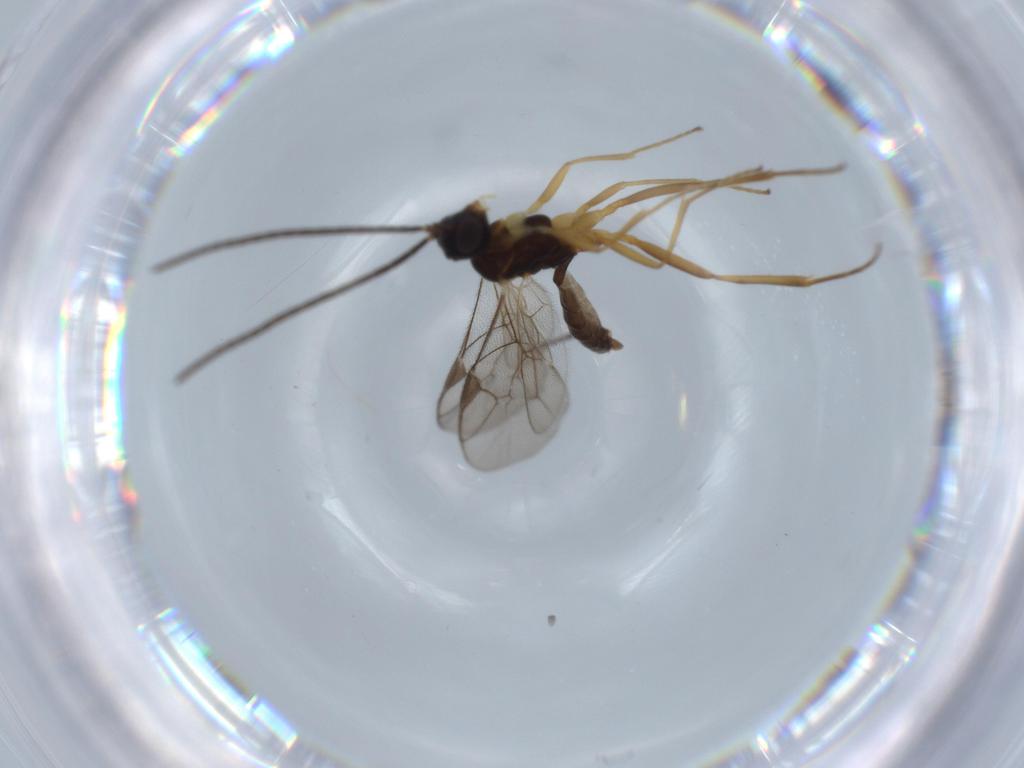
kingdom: Animalia
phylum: Arthropoda
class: Insecta
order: Hymenoptera
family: Ichneumonidae
